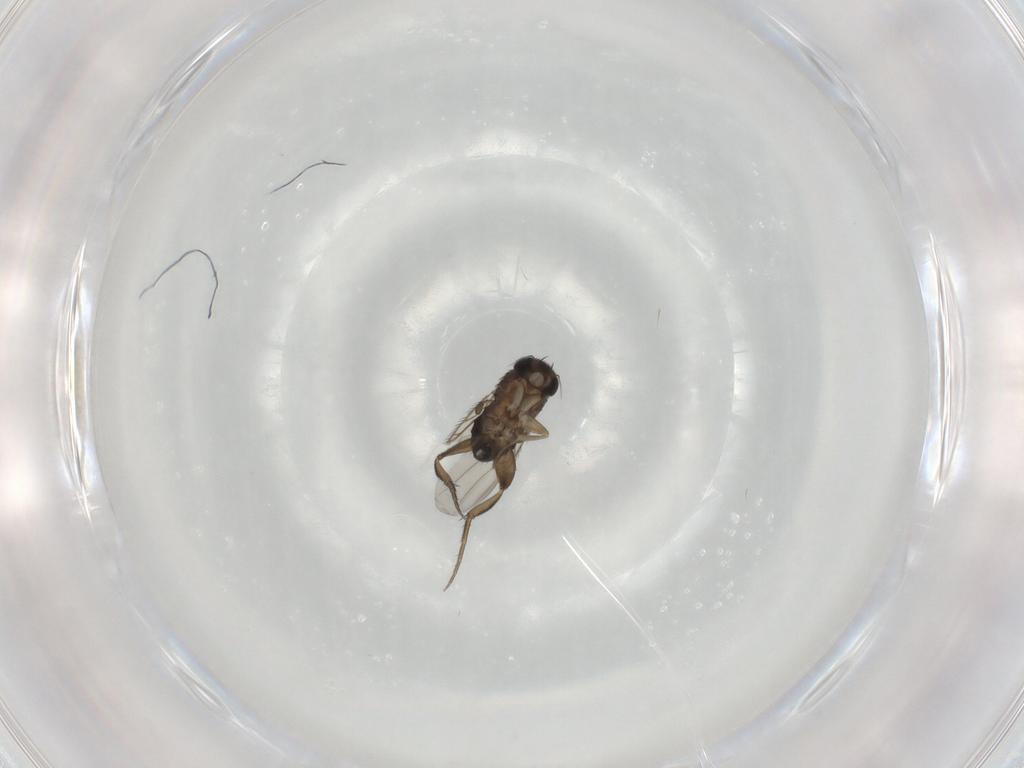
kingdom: Animalia
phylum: Arthropoda
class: Insecta
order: Diptera
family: Phoridae
